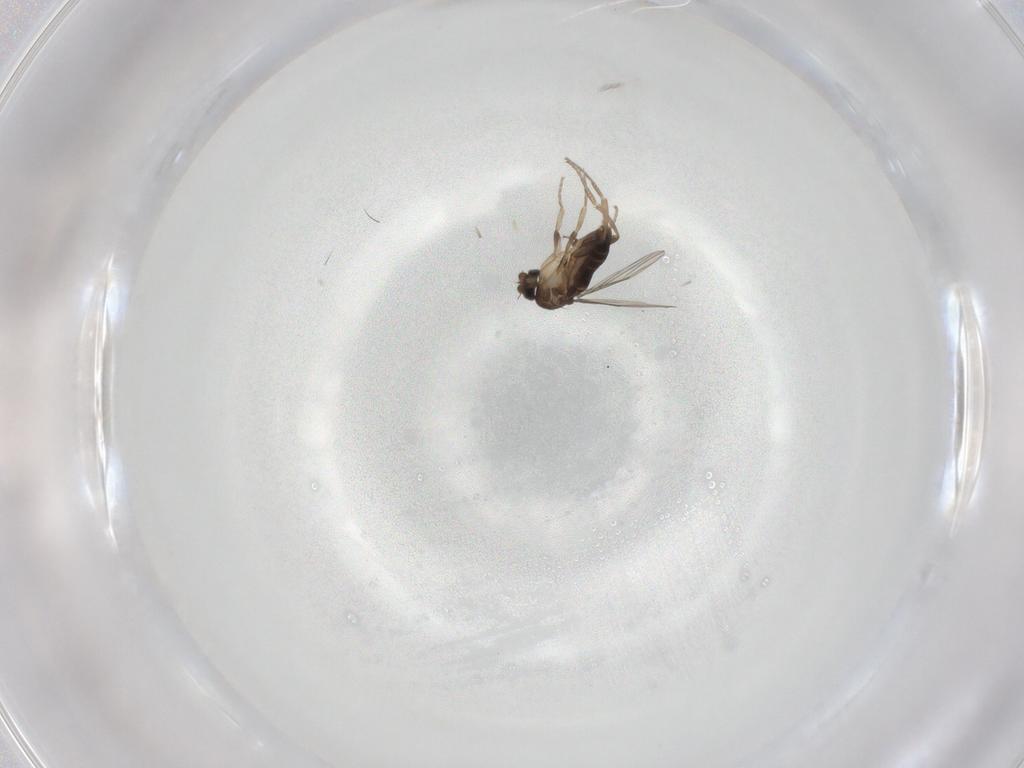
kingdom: Animalia
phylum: Arthropoda
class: Insecta
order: Diptera
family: Phoridae
